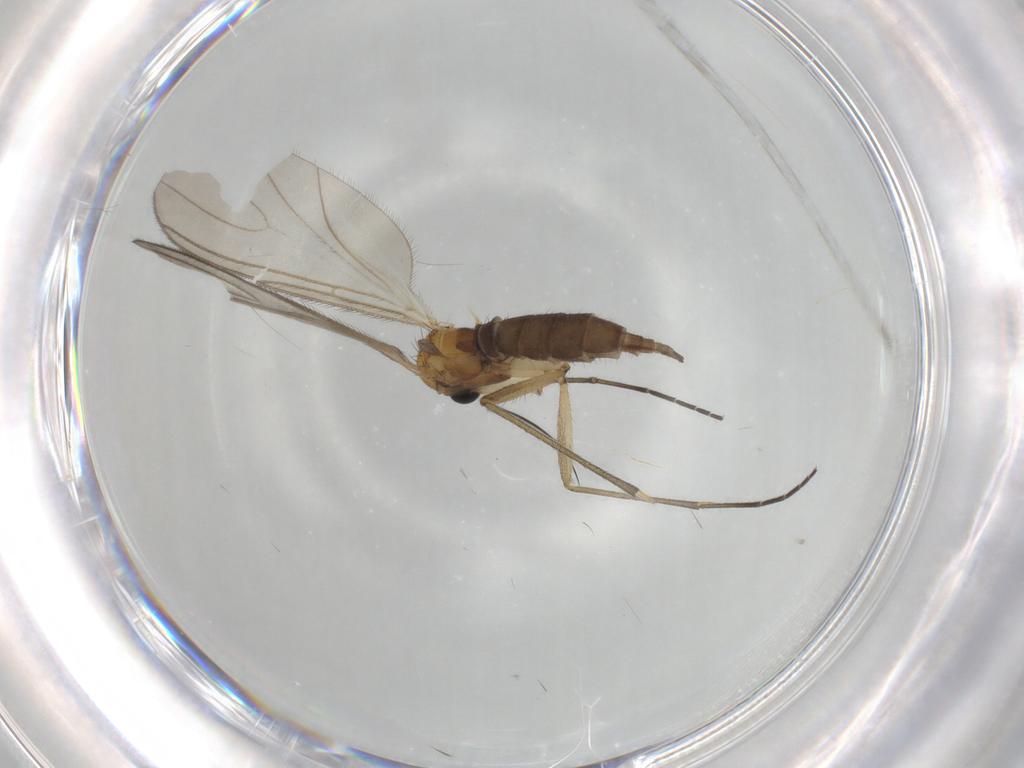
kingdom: Animalia
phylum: Arthropoda
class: Insecta
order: Diptera
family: Sciaridae
